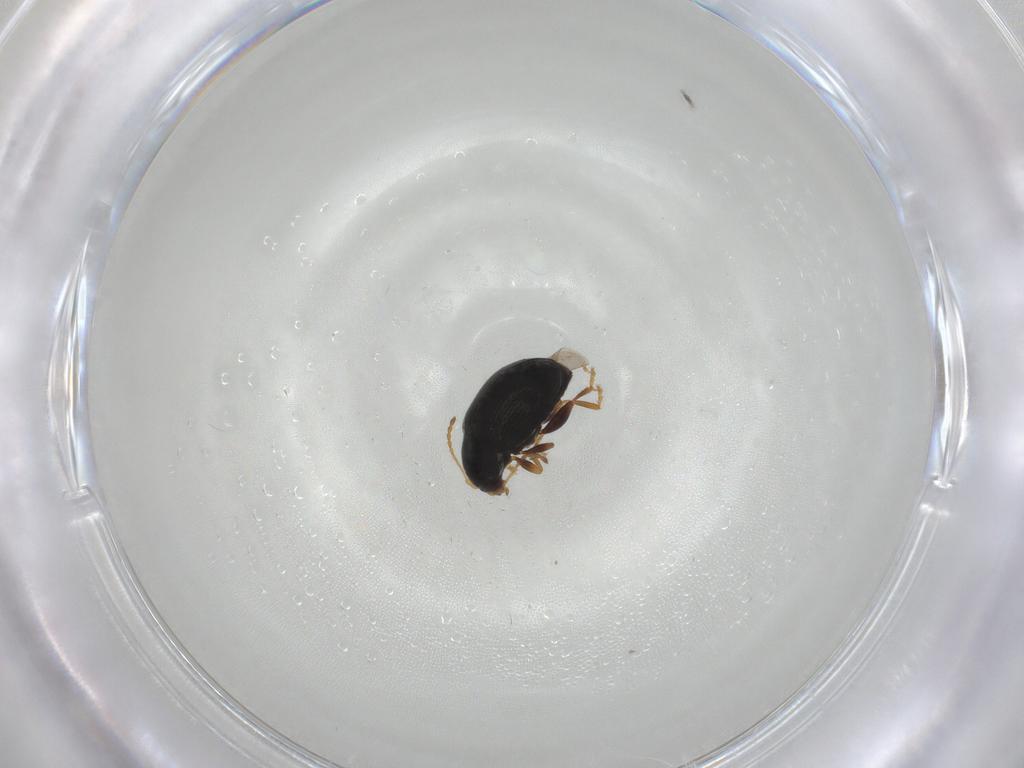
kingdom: Animalia
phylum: Arthropoda
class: Insecta
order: Coleoptera
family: Chrysomelidae
